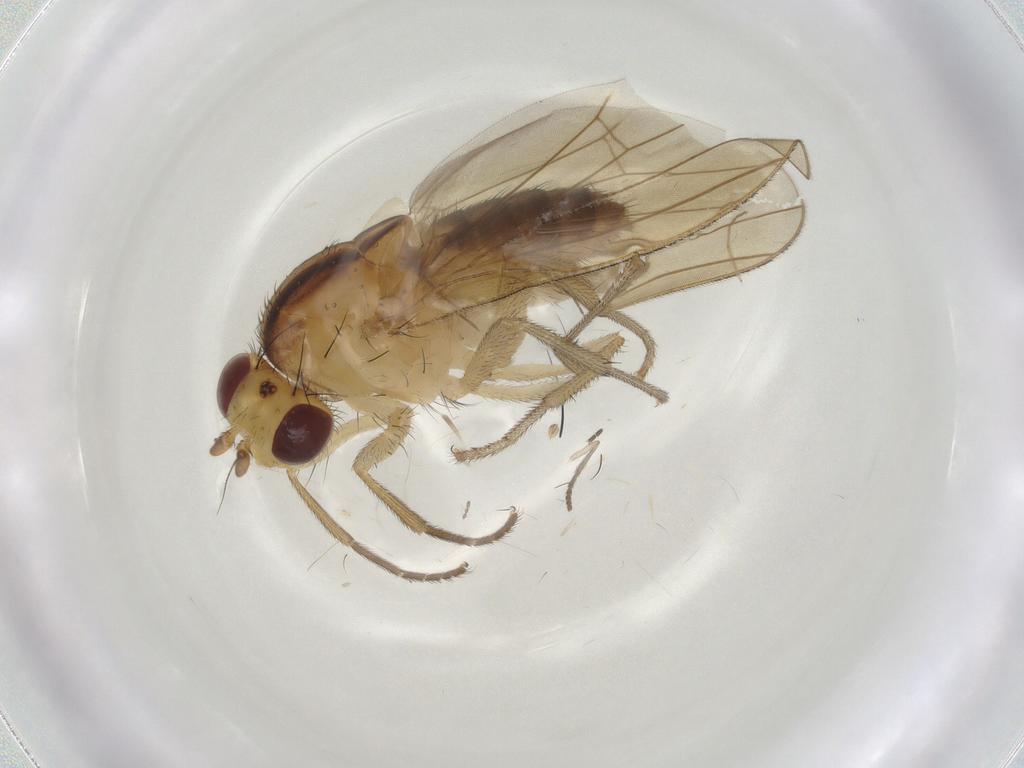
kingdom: Animalia
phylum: Arthropoda
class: Insecta
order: Diptera
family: Psychodidae
